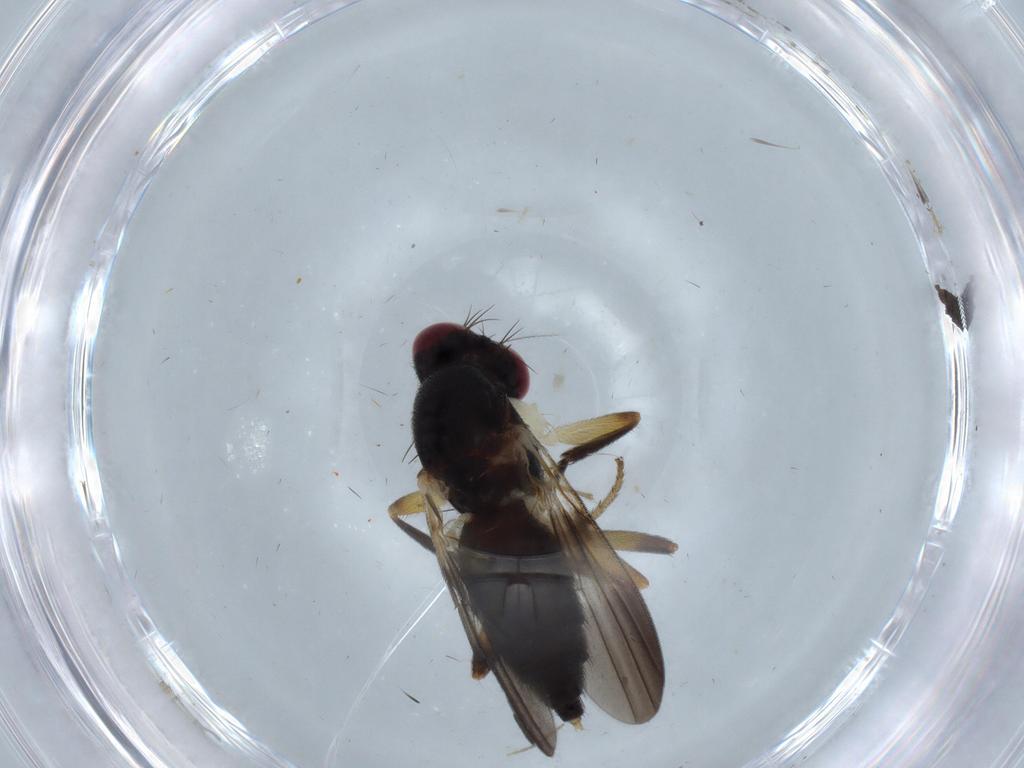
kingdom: Animalia
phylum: Arthropoda
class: Insecta
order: Diptera
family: Clusiidae
